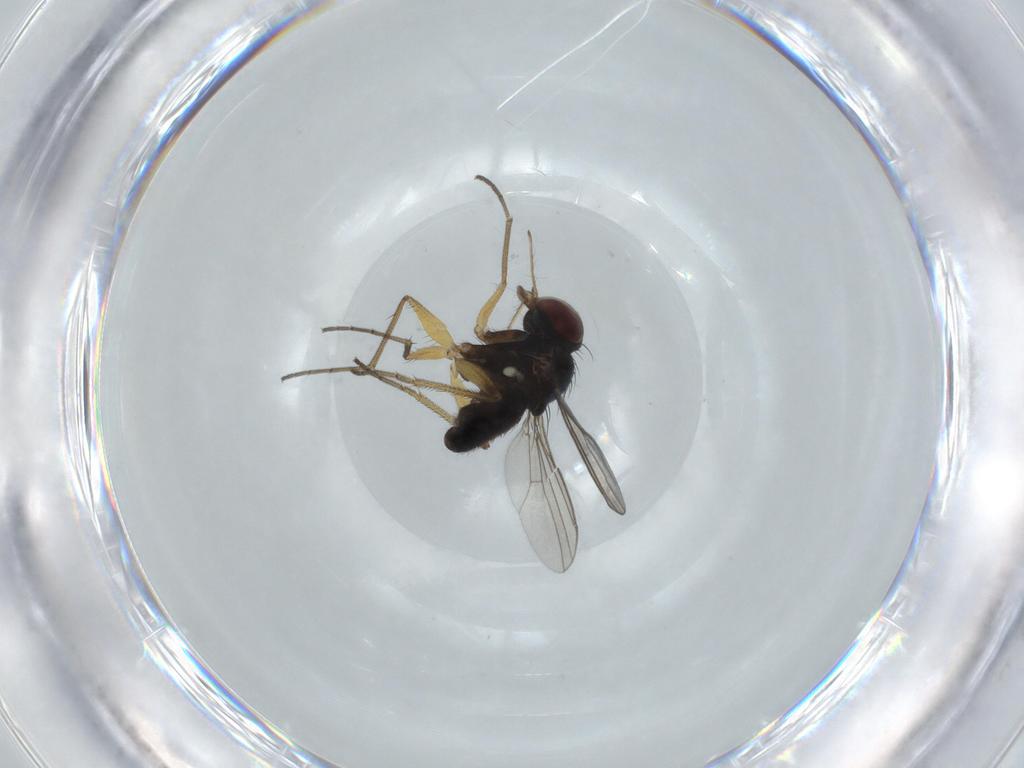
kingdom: Animalia
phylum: Arthropoda
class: Insecta
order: Diptera
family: Dolichopodidae
